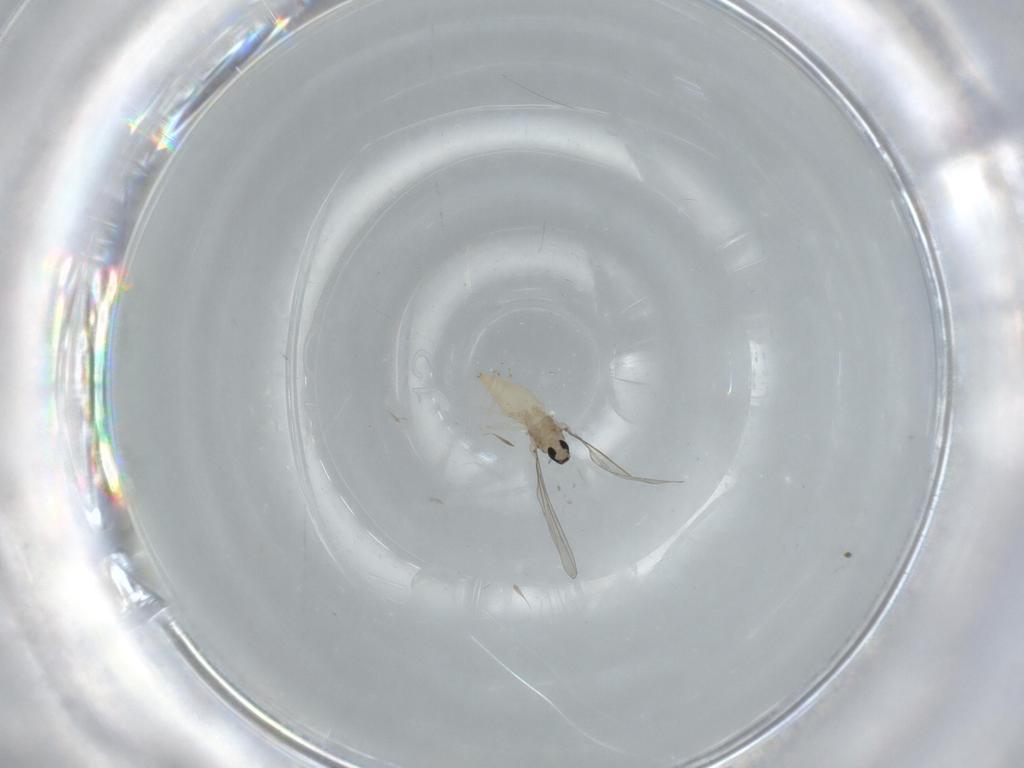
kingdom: Animalia
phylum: Arthropoda
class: Insecta
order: Diptera
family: Cecidomyiidae
